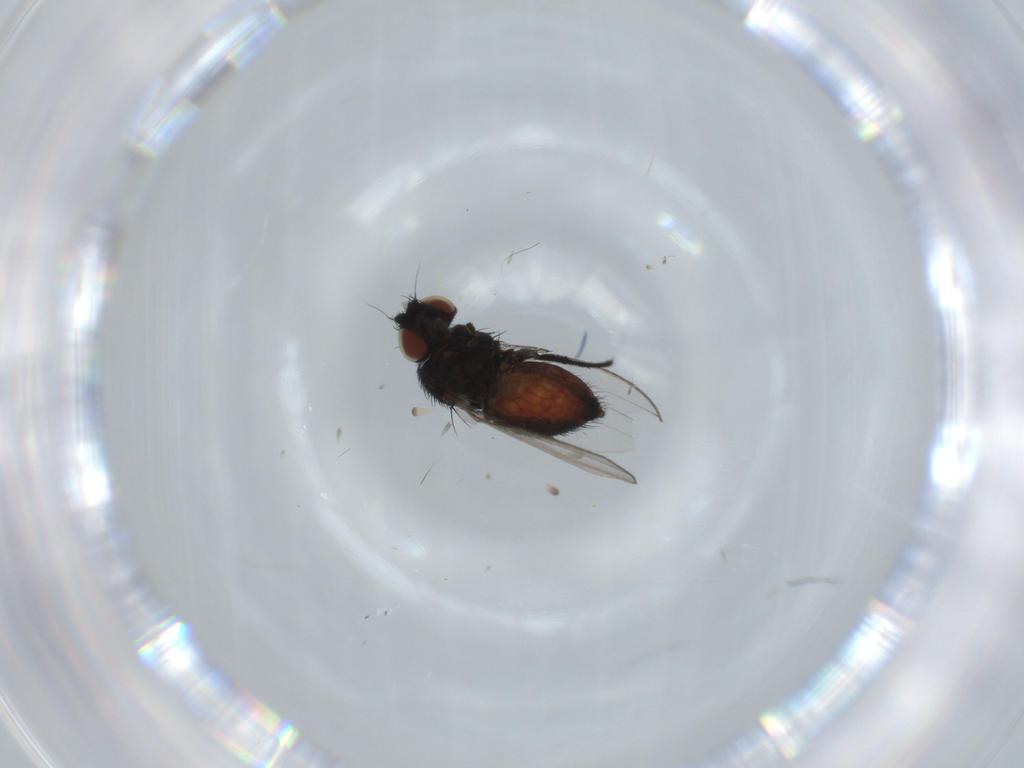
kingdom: Animalia
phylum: Arthropoda
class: Insecta
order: Diptera
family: Milichiidae
